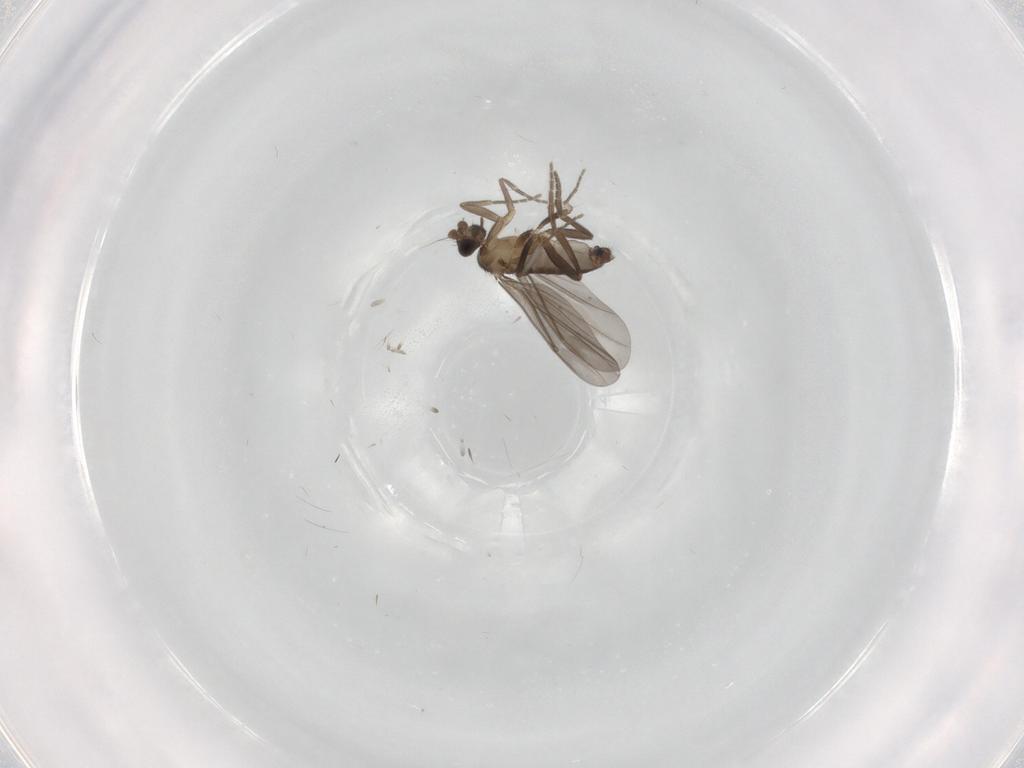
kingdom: Animalia
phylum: Arthropoda
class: Insecta
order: Diptera
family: Phoridae
